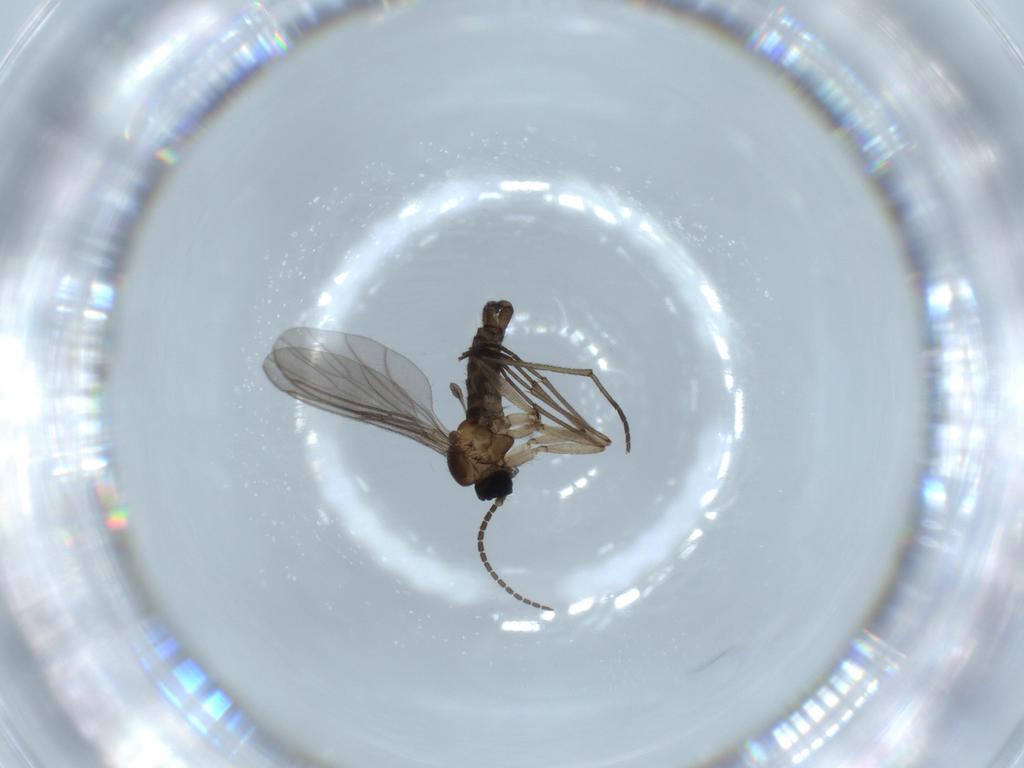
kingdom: Animalia
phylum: Arthropoda
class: Insecta
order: Diptera
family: Sciaridae
